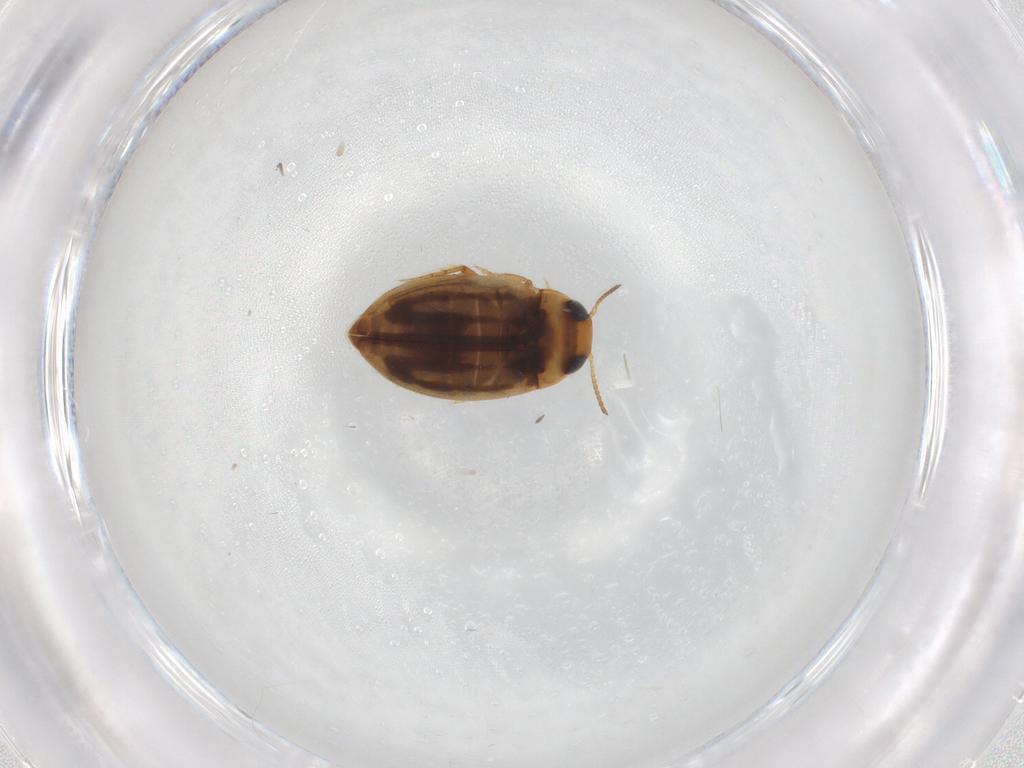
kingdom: Animalia
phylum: Arthropoda
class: Insecta
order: Coleoptera
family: Dytiscidae
